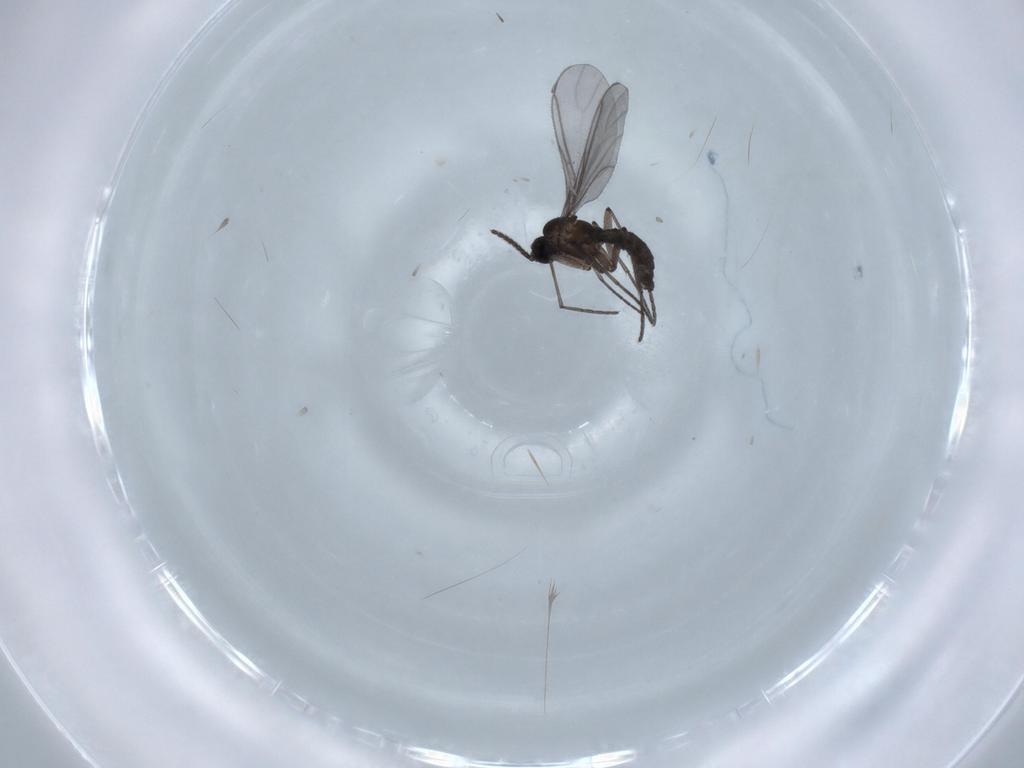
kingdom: Animalia
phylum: Arthropoda
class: Insecta
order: Diptera
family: Sciaridae
